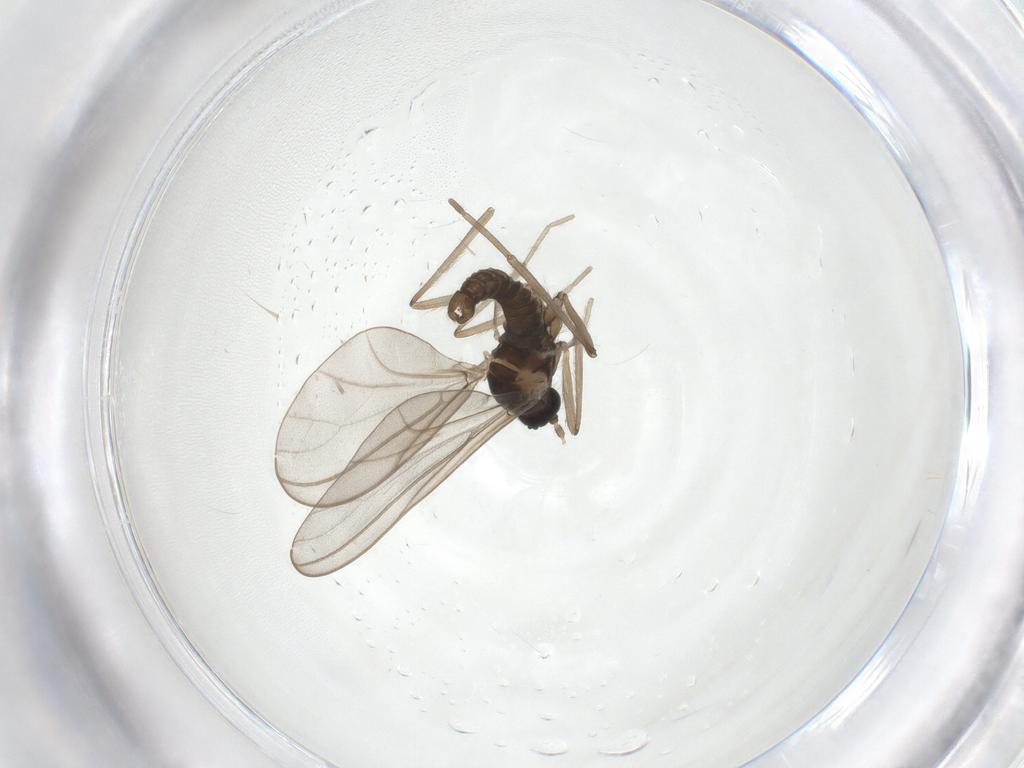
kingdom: Animalia
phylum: Arthropoda
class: Insecta
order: Diptera
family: Cecidomyiidae
